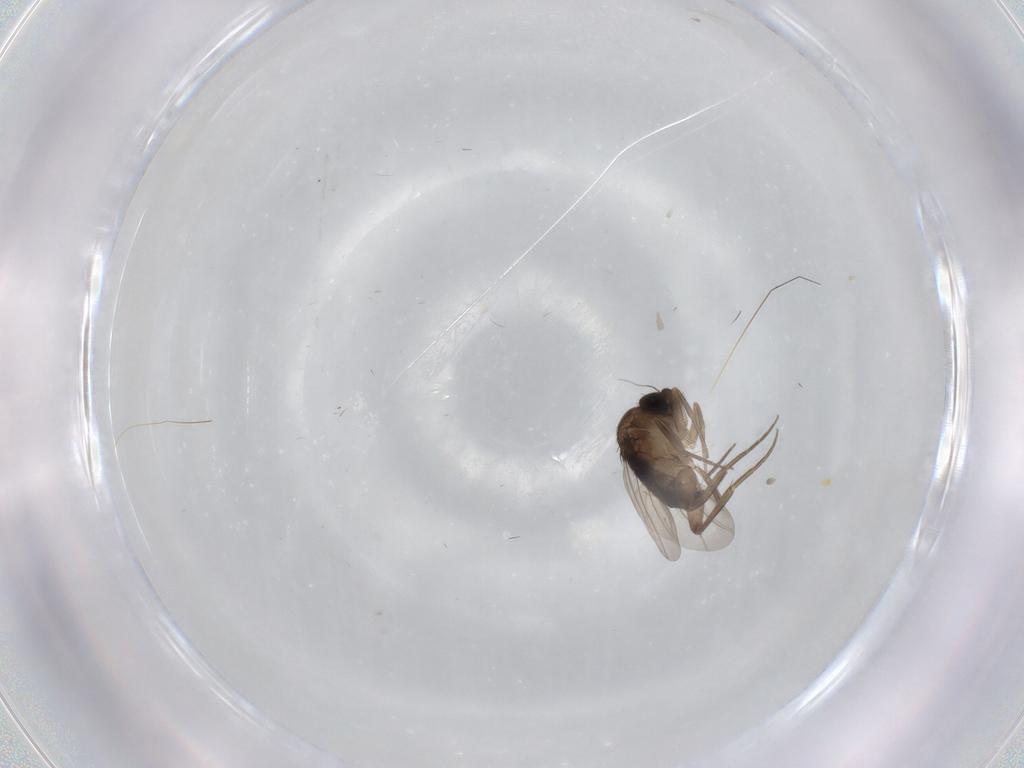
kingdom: Animalia
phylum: Arthropoda
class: Insecta
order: Diptera
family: Phoridae
